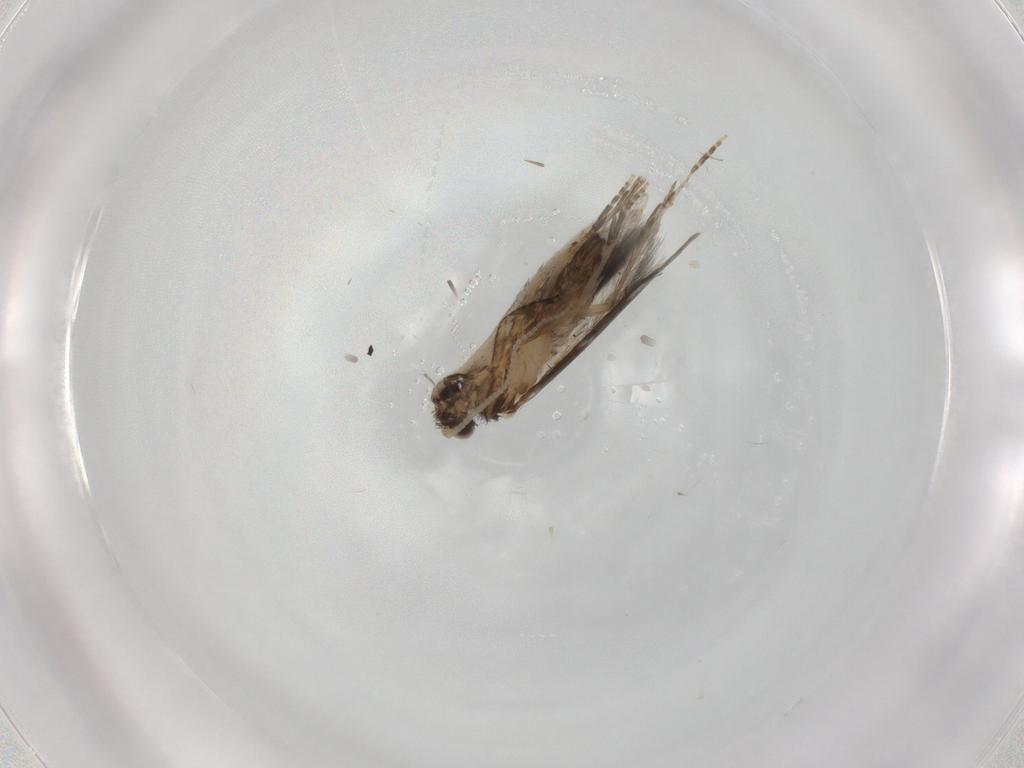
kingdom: Animalia
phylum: Arthropoda
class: Insecta
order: Trichoptera
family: Hydroptilidae
